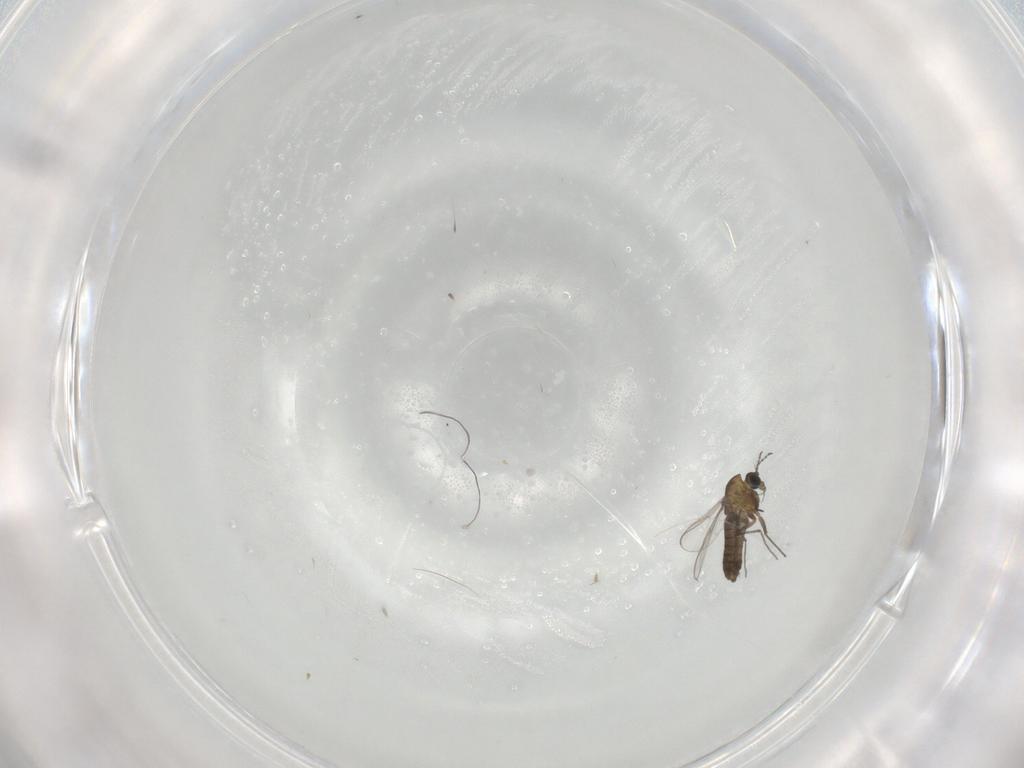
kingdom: Animalia
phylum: Arthropoda
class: Insecta
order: Diptera
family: Chironomidae
